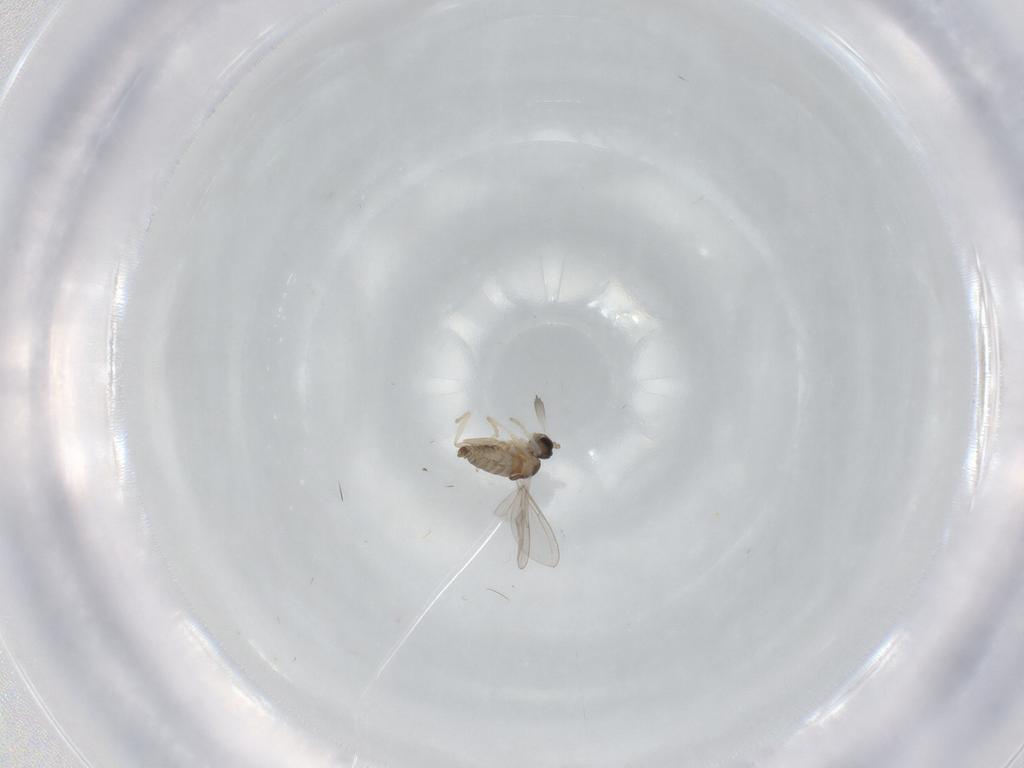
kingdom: Animalia
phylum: Arthropoda
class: Insecta
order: Diptera
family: Cecidomyiidae
